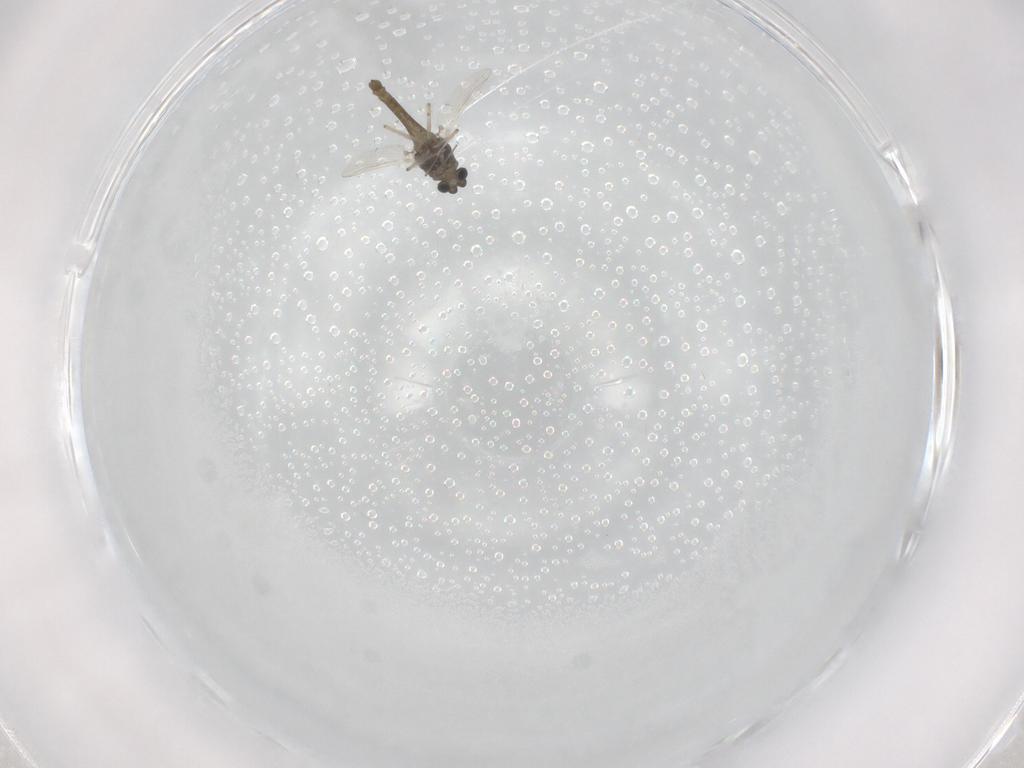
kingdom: Animalia
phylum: Arthropoda
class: Insecta
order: Diptera
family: Chironomidae
